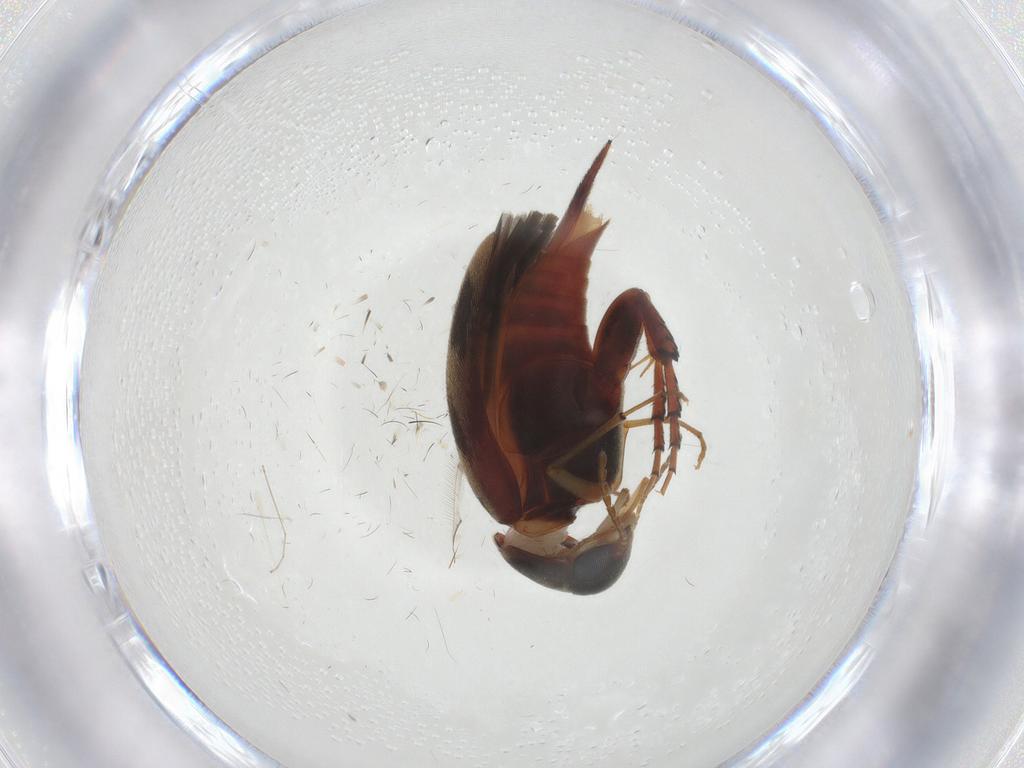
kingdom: Animalia
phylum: Arthropoda
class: Insecta
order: Coleoptera
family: Mordellidae
